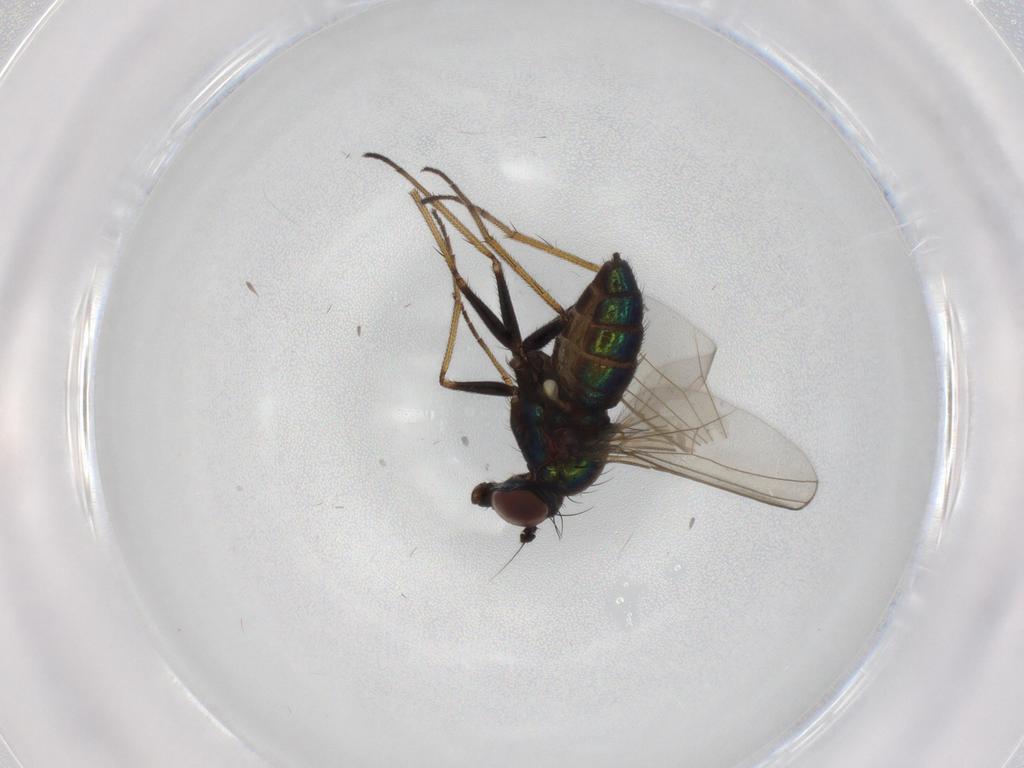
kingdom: Animalia
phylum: Arthropoda
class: Insecta
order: Diptera
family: Dolichopodidae
